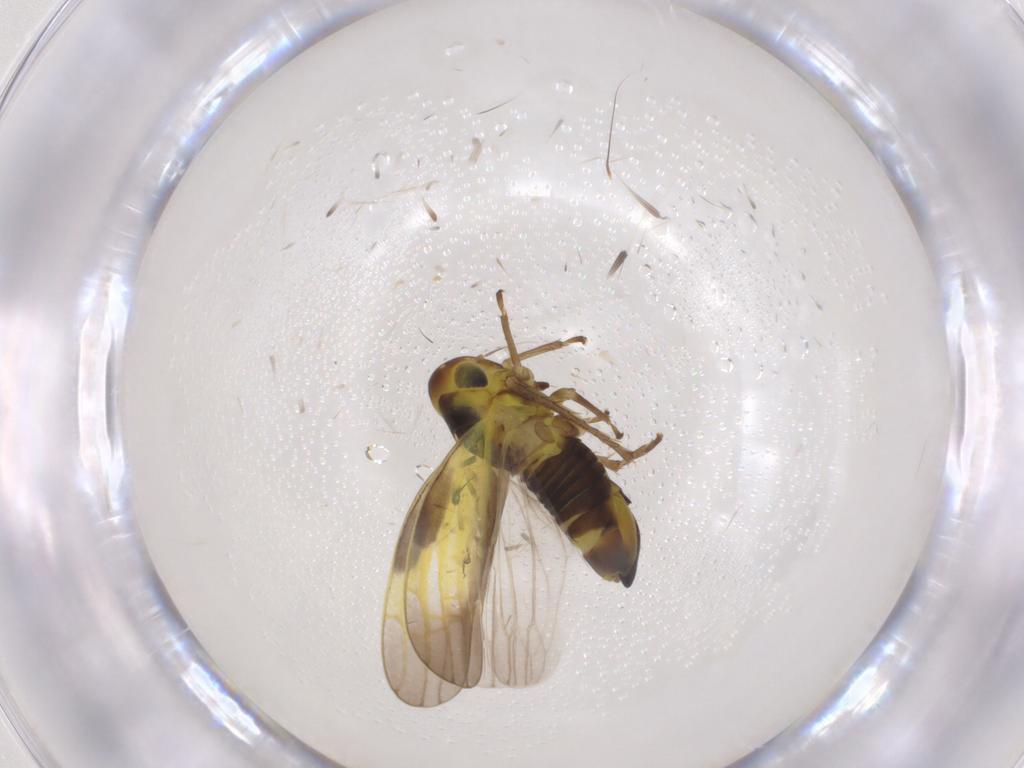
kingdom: Animalia
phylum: Arthropoda
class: Insecta
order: Hemiptera
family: Cicadellidae
